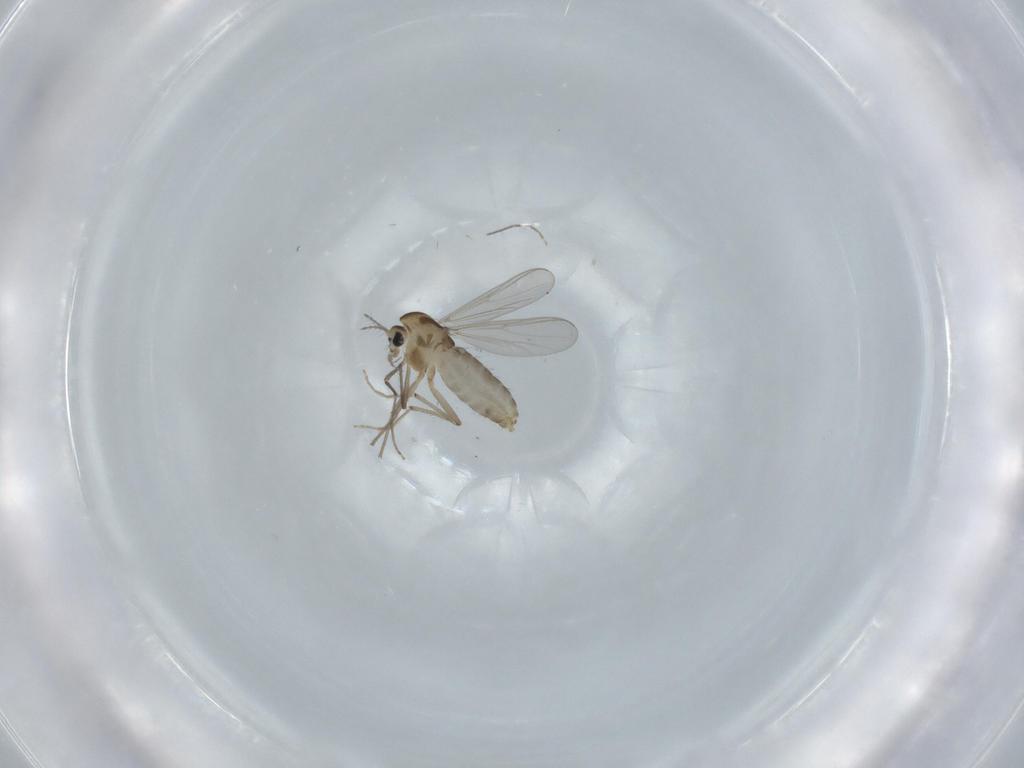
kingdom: Animalia
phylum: Arthropoda
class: Insecta
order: Diptera
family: Chironomidae
